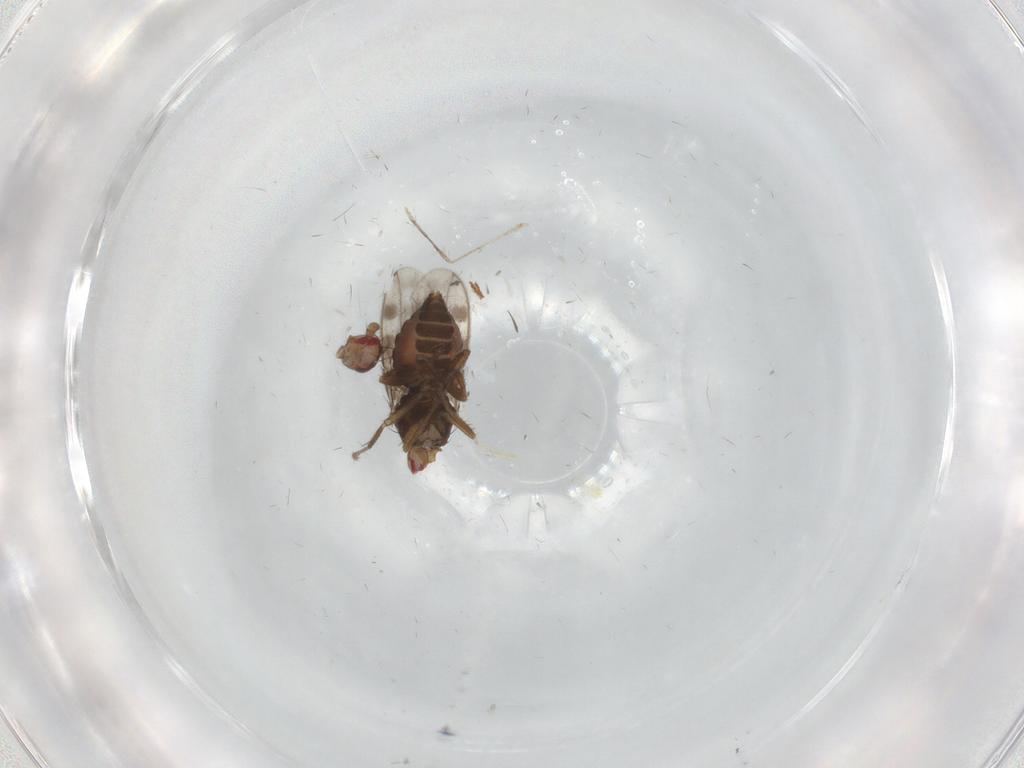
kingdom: Animalia
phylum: Arthropoda
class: Insecta
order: Diptera
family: Sphaeroceridae
